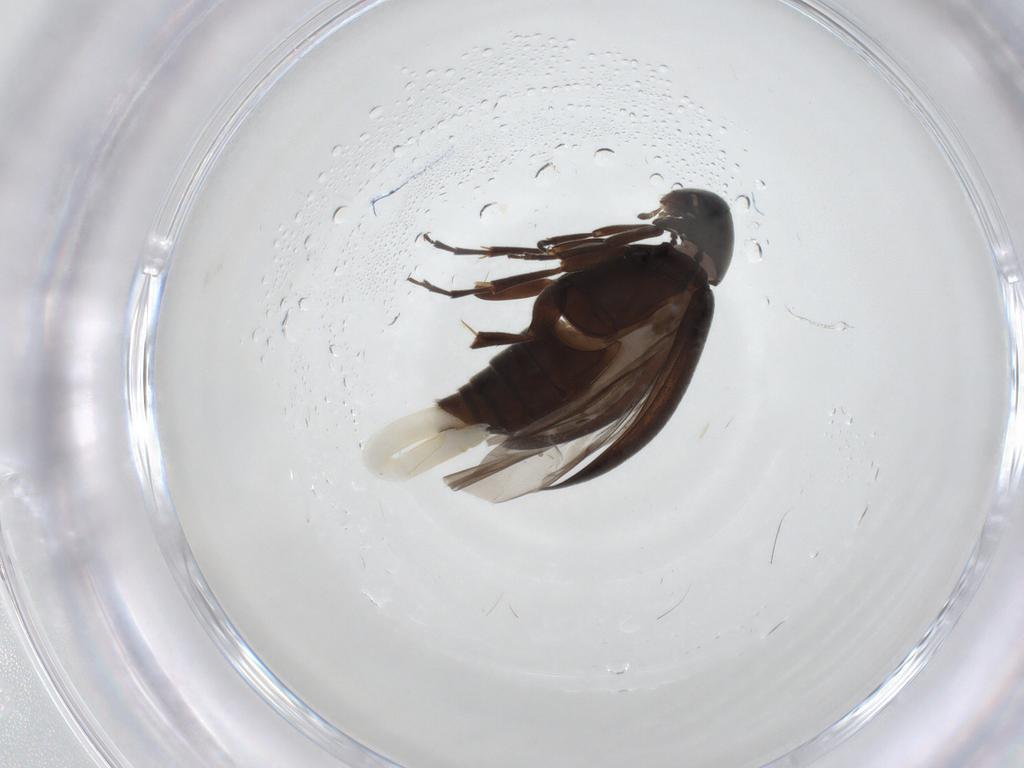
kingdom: Animalia
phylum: Arthropoda
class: Insecta
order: Coleoptera
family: Scraptiidae
